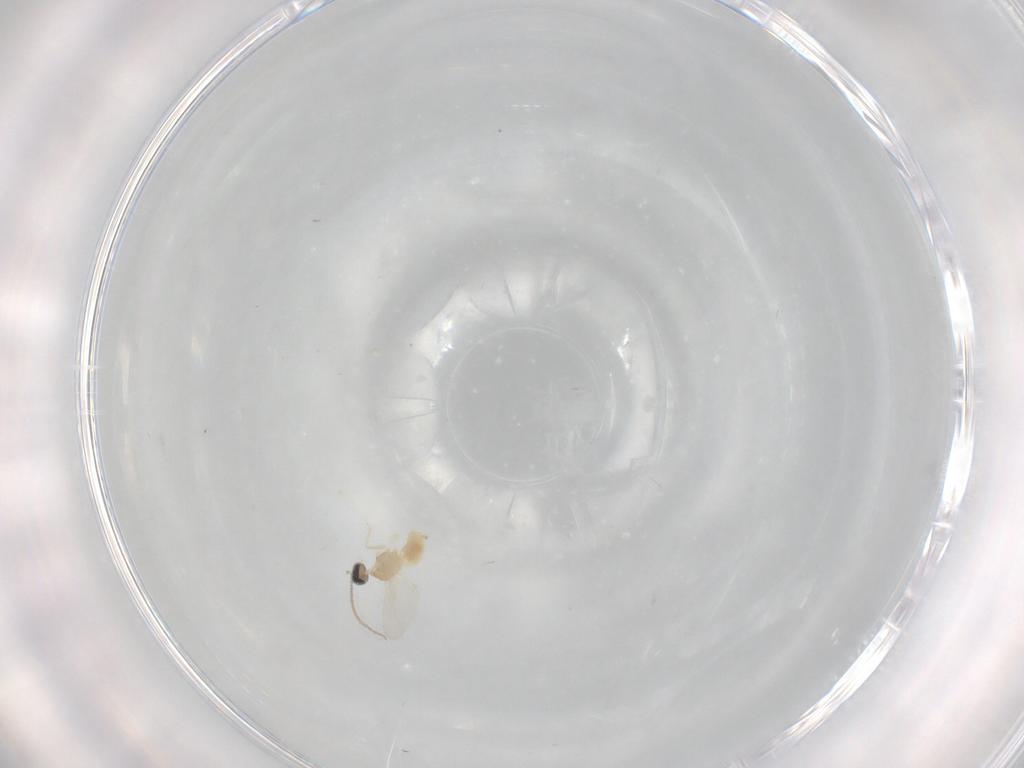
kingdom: Animalia
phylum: Arthropoda
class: Insecta
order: Diptera
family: Cecidomyiidae
